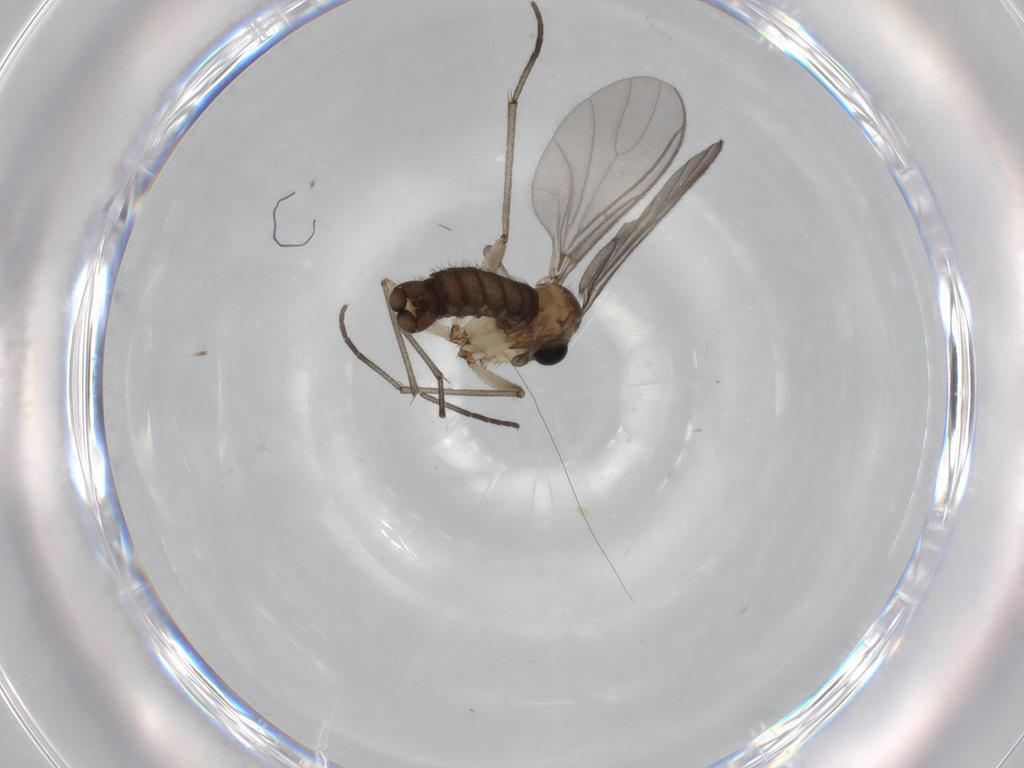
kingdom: Animalia
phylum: Arthropoda
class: Insecta
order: Diptera
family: Sciaridae
